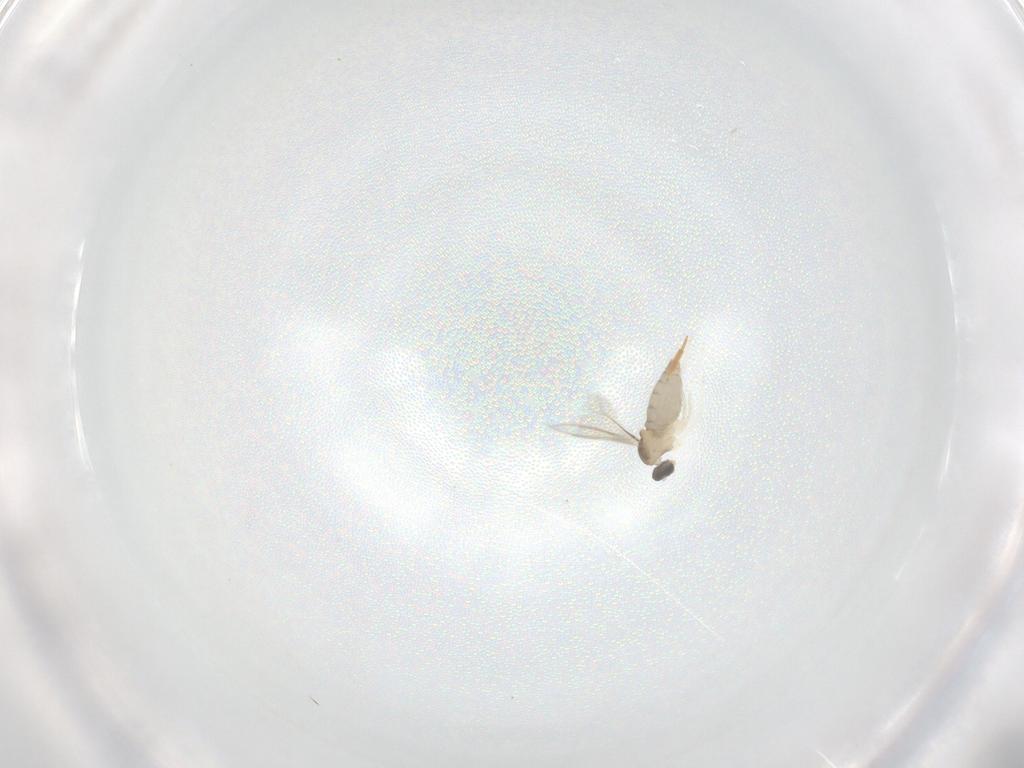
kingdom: Animalia
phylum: Arthropoda
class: Insecta
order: Diptera
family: Cecidomyiidae
